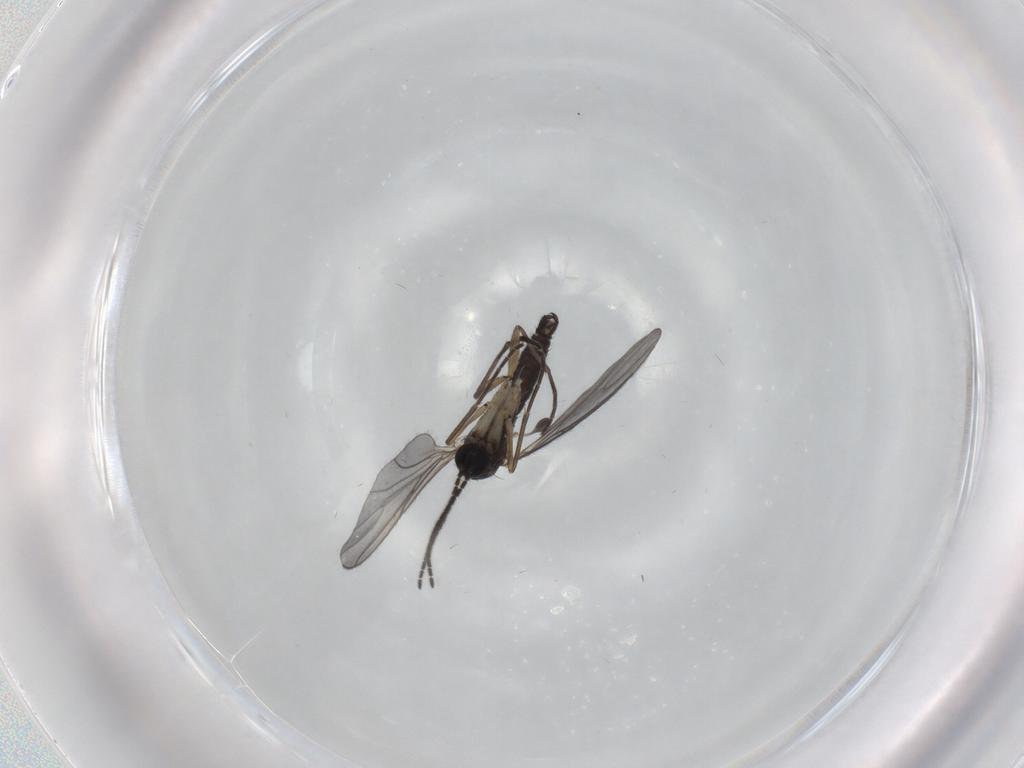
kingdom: Animalia
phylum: Arthropoda
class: Insecta
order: Diptera
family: Sciaridae
